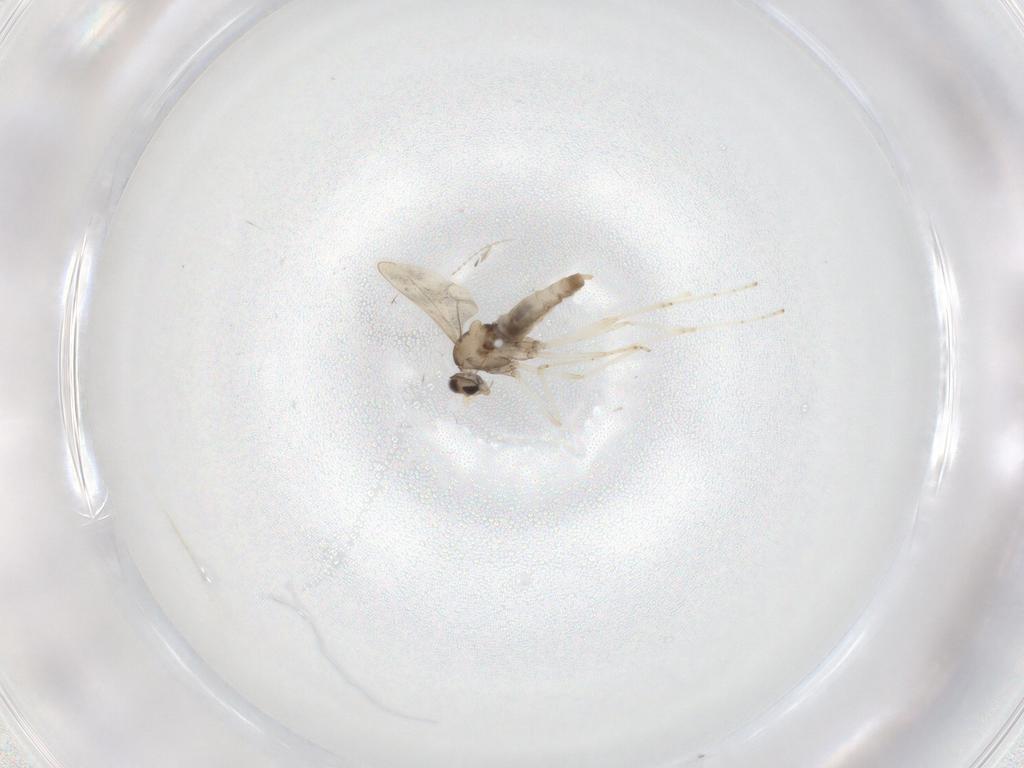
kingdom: Animalia
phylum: Arthropoda
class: Insecta
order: Diptera
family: Cecidomyiidae
